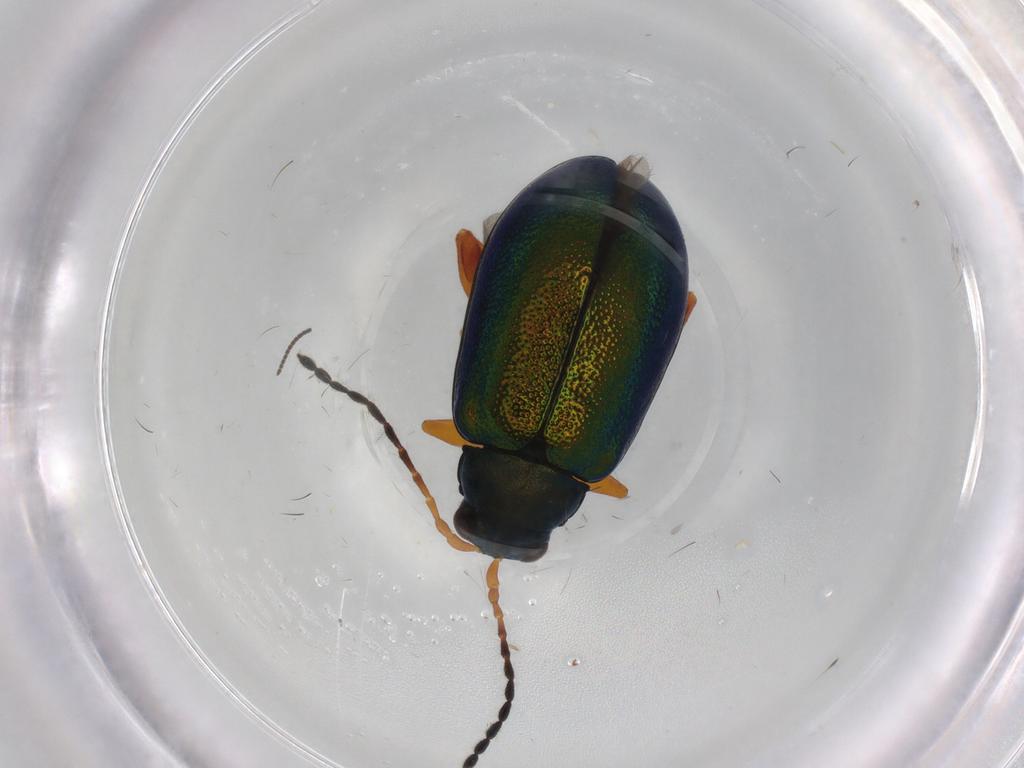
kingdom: Animalia
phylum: Arthropoda
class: Insecta
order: Coleoptera
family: Chrysomelidae
